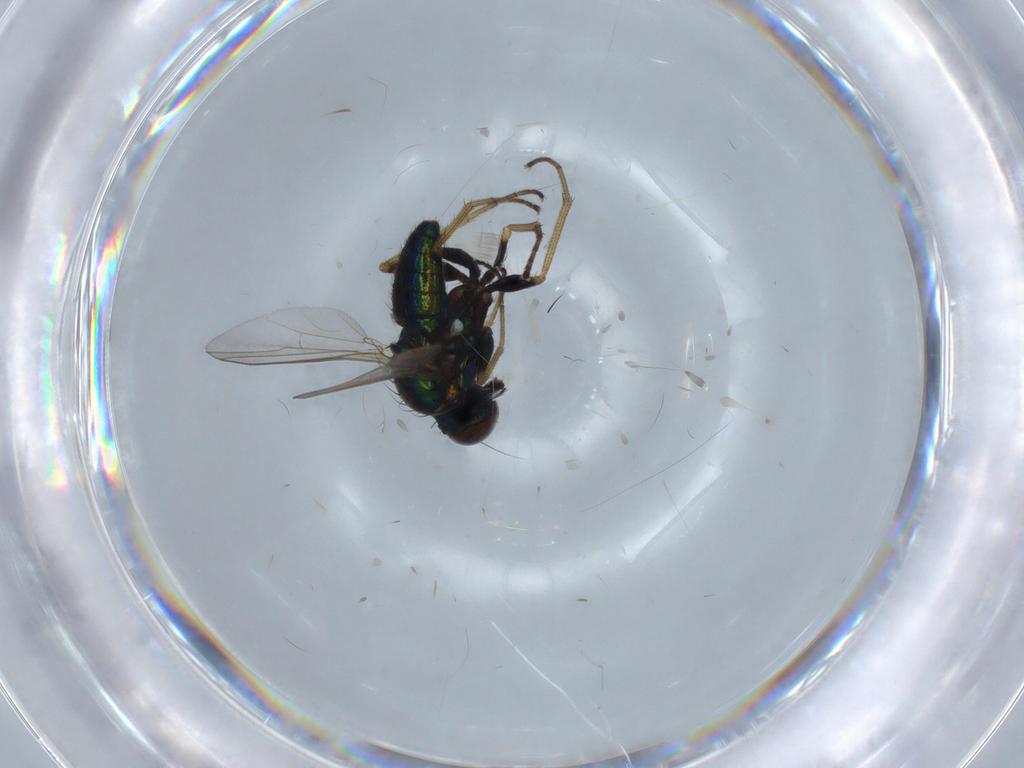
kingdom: Animalia
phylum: Arthropoda
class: Insecta
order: Diptera
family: Dolichopodidae
